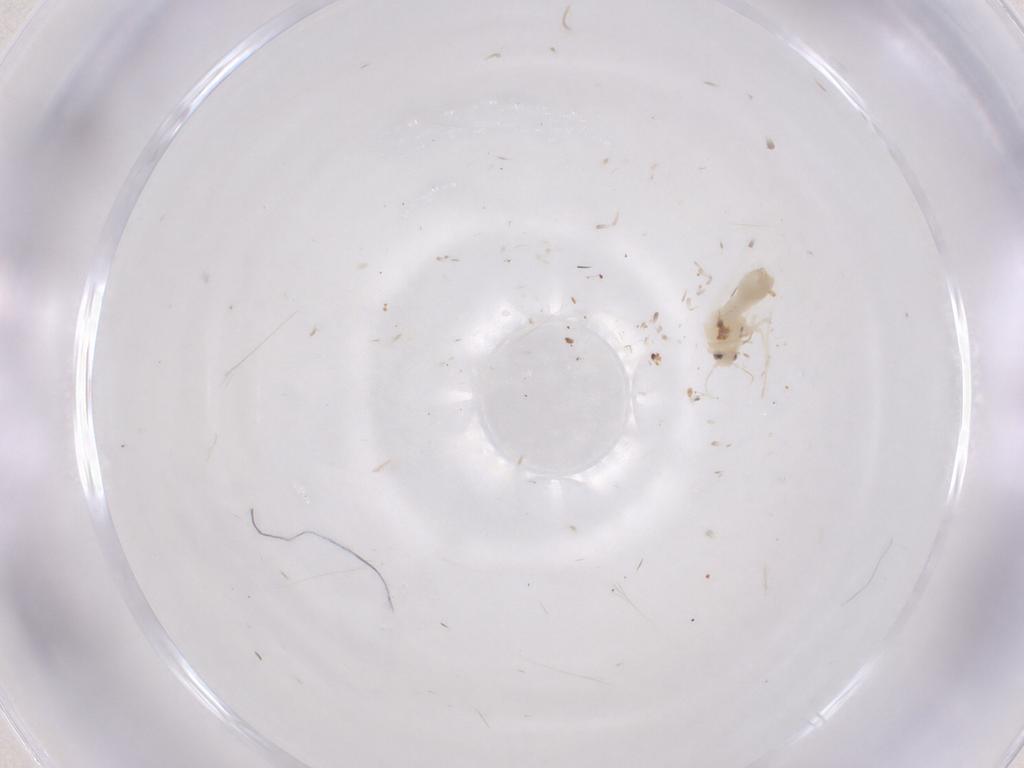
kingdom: Animalia
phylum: Arthropoda
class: Insecta
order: Hemiptera
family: Aleyrodidae
